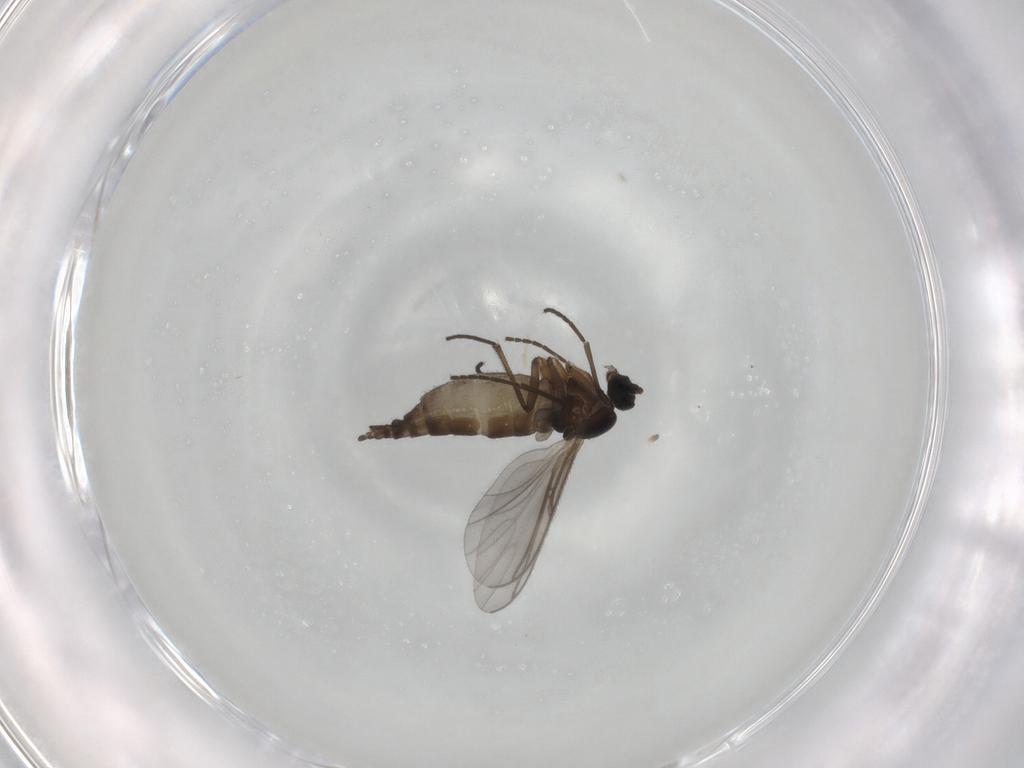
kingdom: Animalia
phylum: Arthropoda
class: Insecta
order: Diptera
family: Sciaridae
